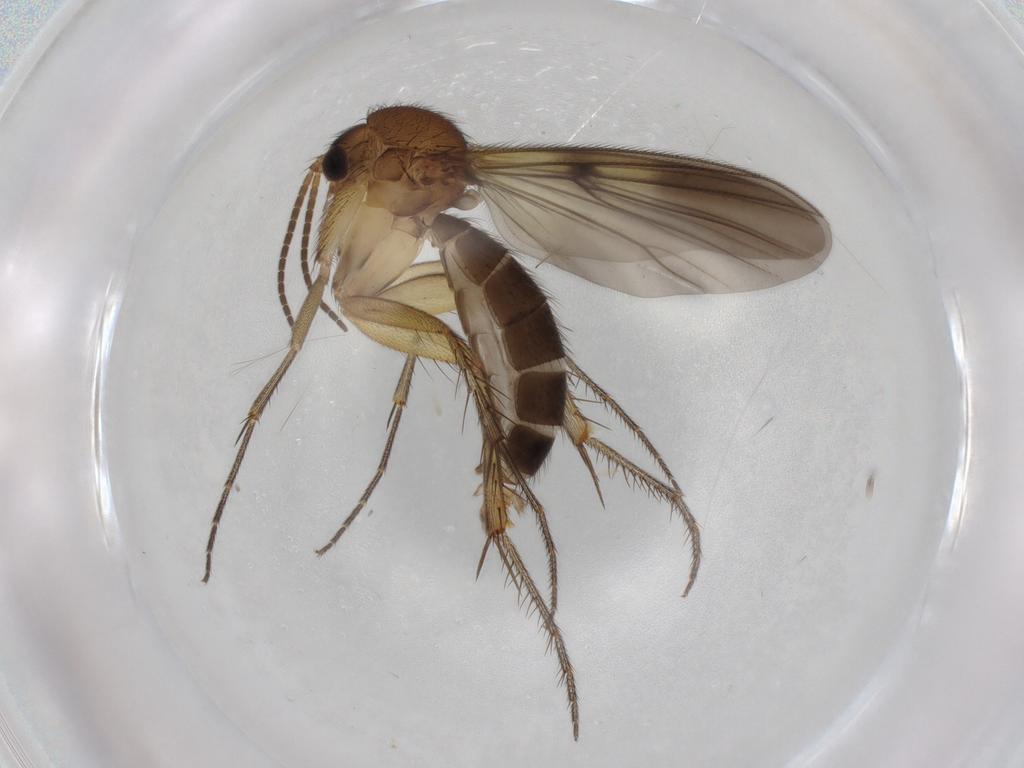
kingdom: Animalia
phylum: Arthropoda
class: Insecta
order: Diptera
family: Mycetophilidae
